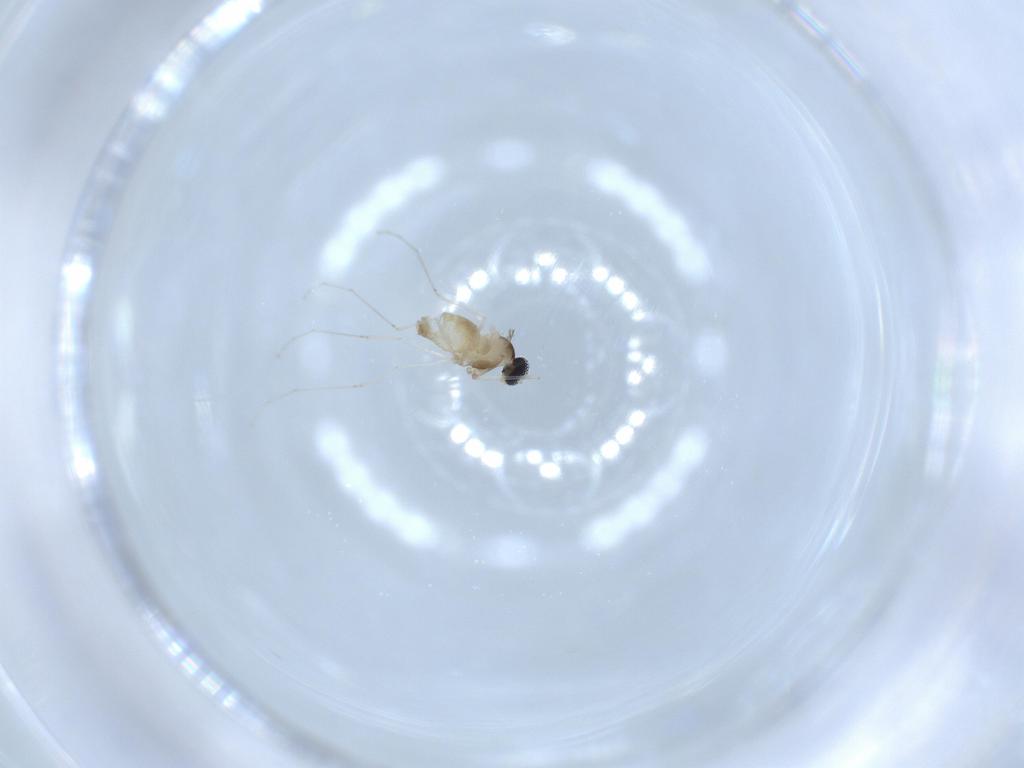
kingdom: Animalia
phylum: Arthropoda
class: Insecta
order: Diptera
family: Cecidomyiidae
